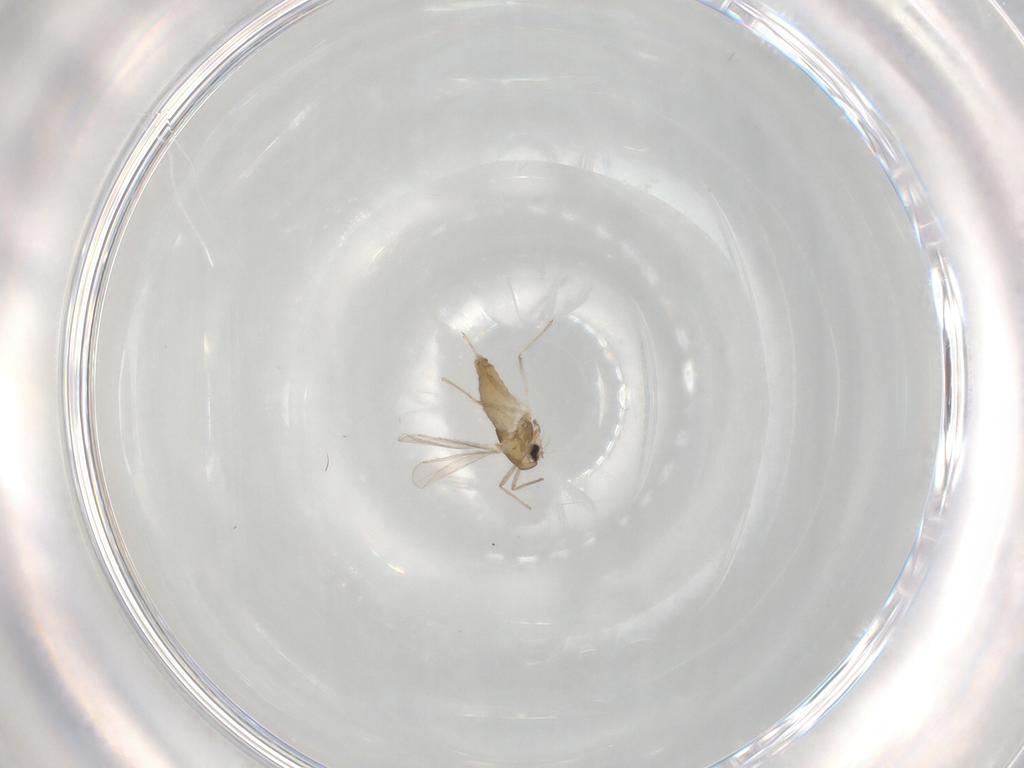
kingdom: Animalia
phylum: Arthropoda
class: Insecta
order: Diptera
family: Chironomidae
